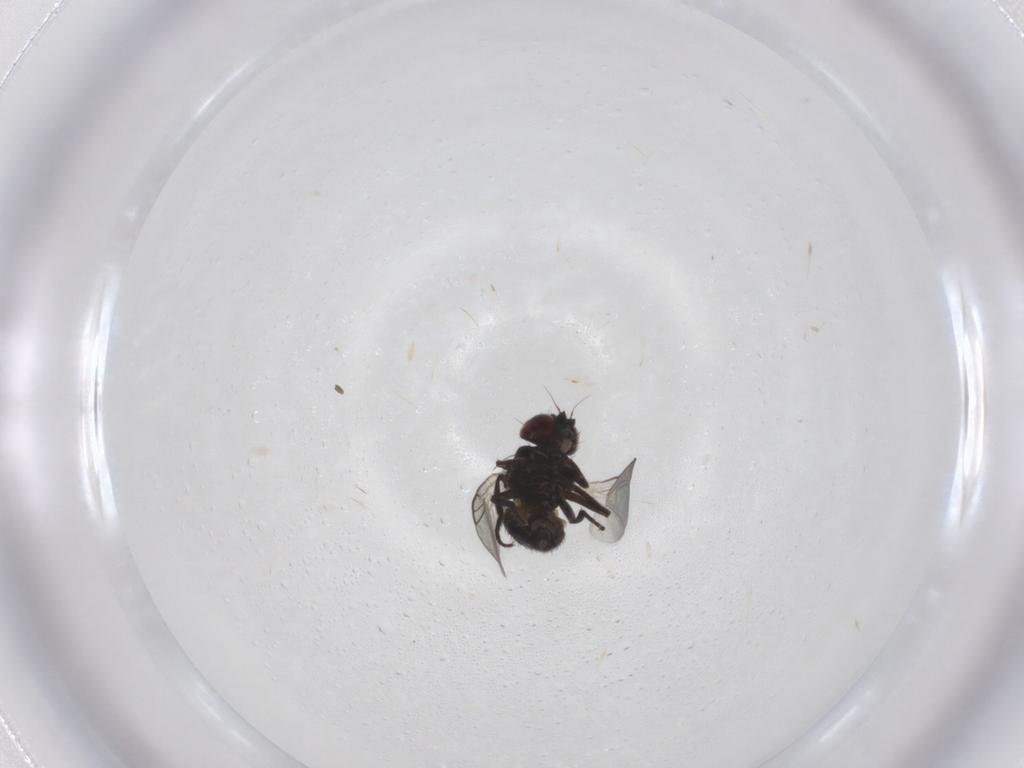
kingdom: Animalia
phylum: Arthropoda
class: Insecta
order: Diptera
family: Agromyzidae
